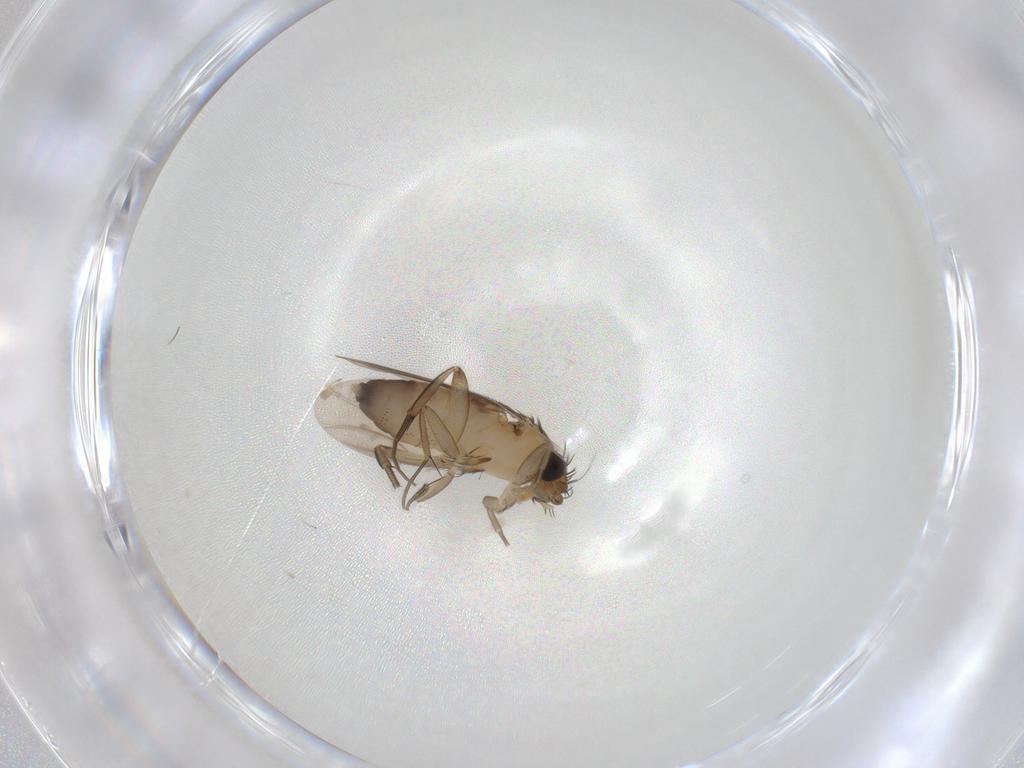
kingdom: Animalia
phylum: Arthropoda
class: Insecta
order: Diptera
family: Phoridae
